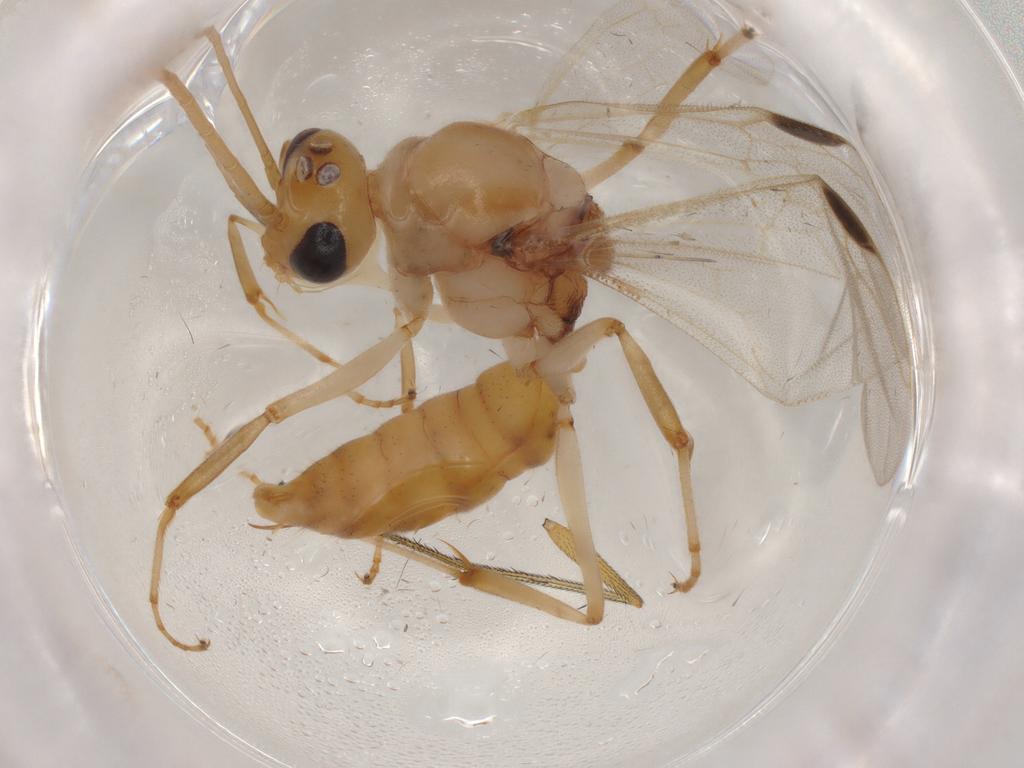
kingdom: Animalia
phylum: Arthropoda
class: Insecta
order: Hymenoptera
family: Formicidae
